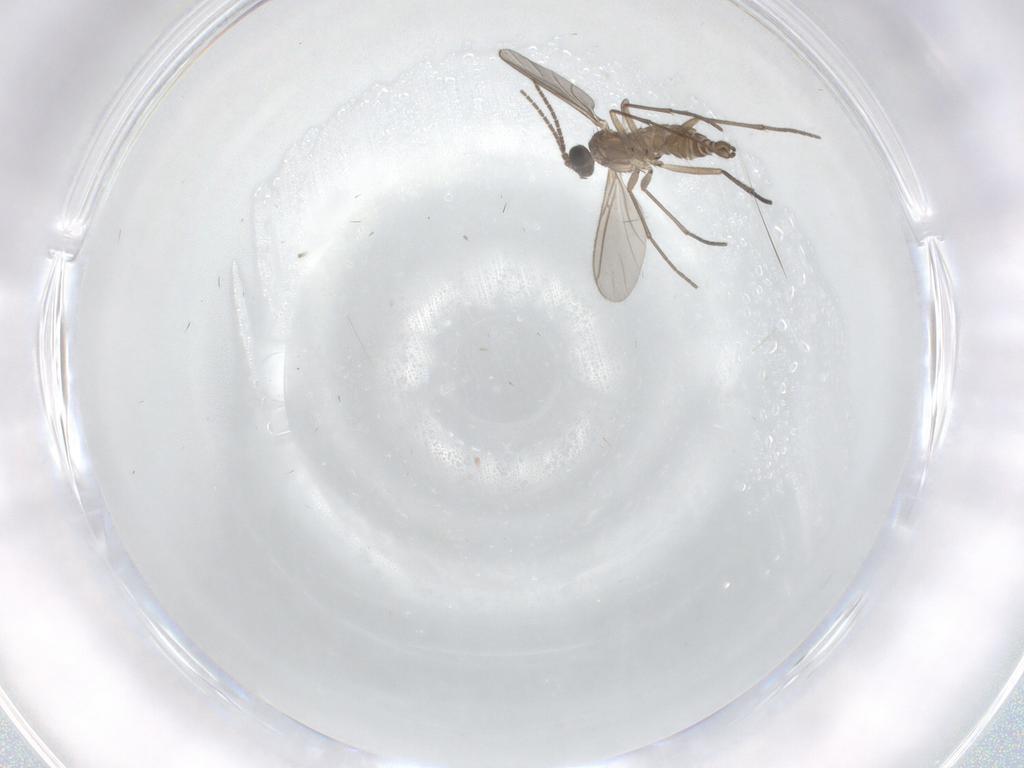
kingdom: Animalia
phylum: Arthropoda
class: Insecta
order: Diptera
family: Sciaridae
